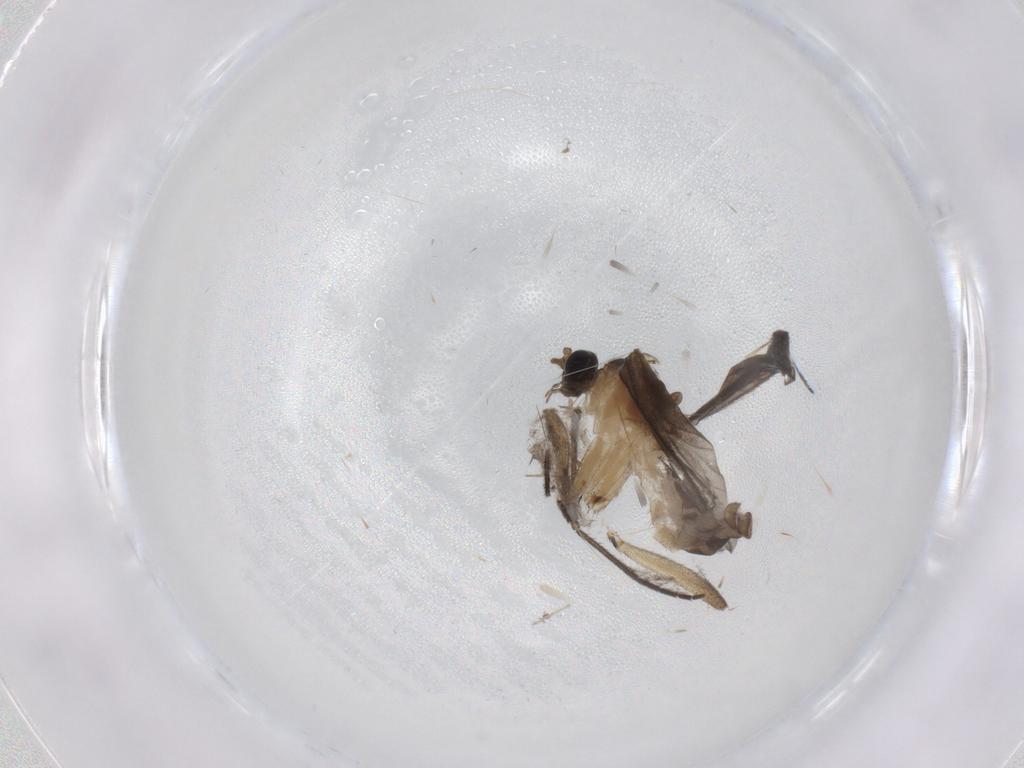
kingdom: Animalia
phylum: Arthropoda
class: Insecta
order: Diptera
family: Sciaridae
